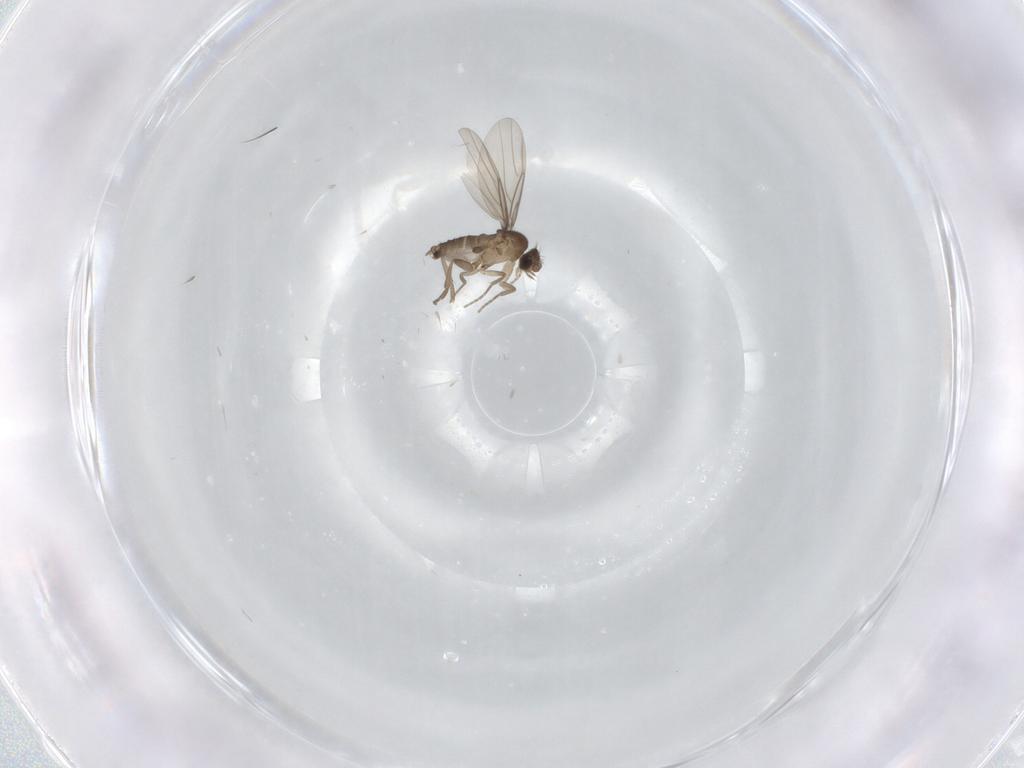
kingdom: Animalia
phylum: Arthropoda
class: Insecta
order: Diptera
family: Phoridae
